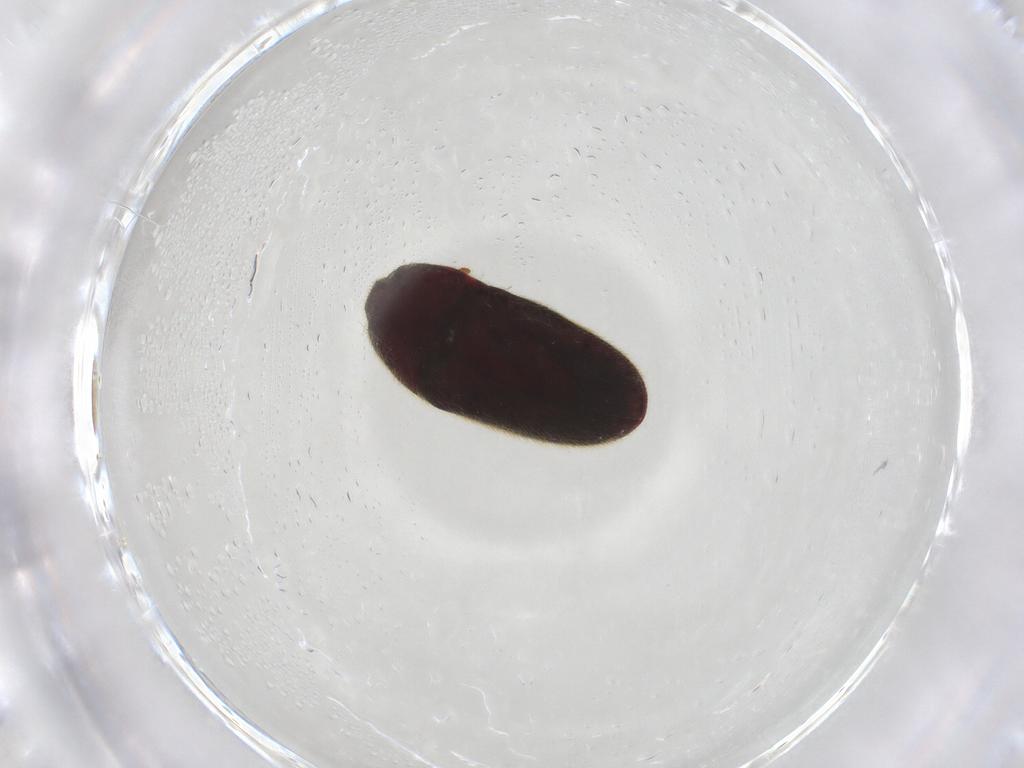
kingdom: Animalia
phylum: Arthropoda
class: Insecta
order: Coleoptera
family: Throscidae
